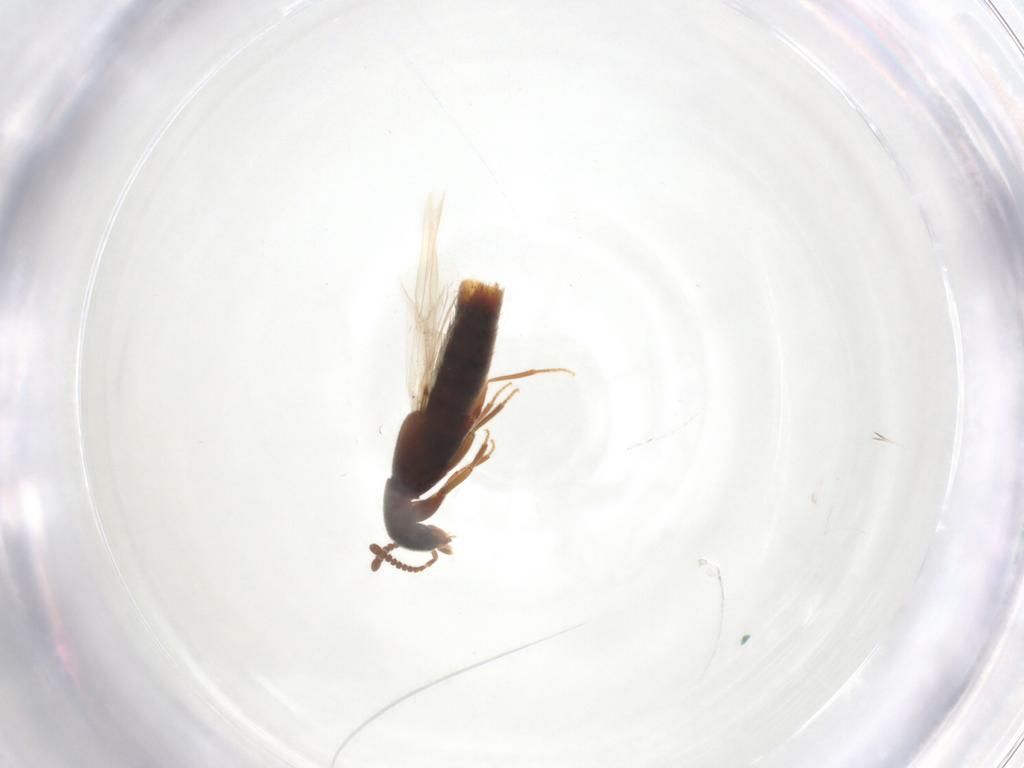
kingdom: Animalia
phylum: Arthropoda
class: Insecta
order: Coleoptera
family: Staphylinidae
